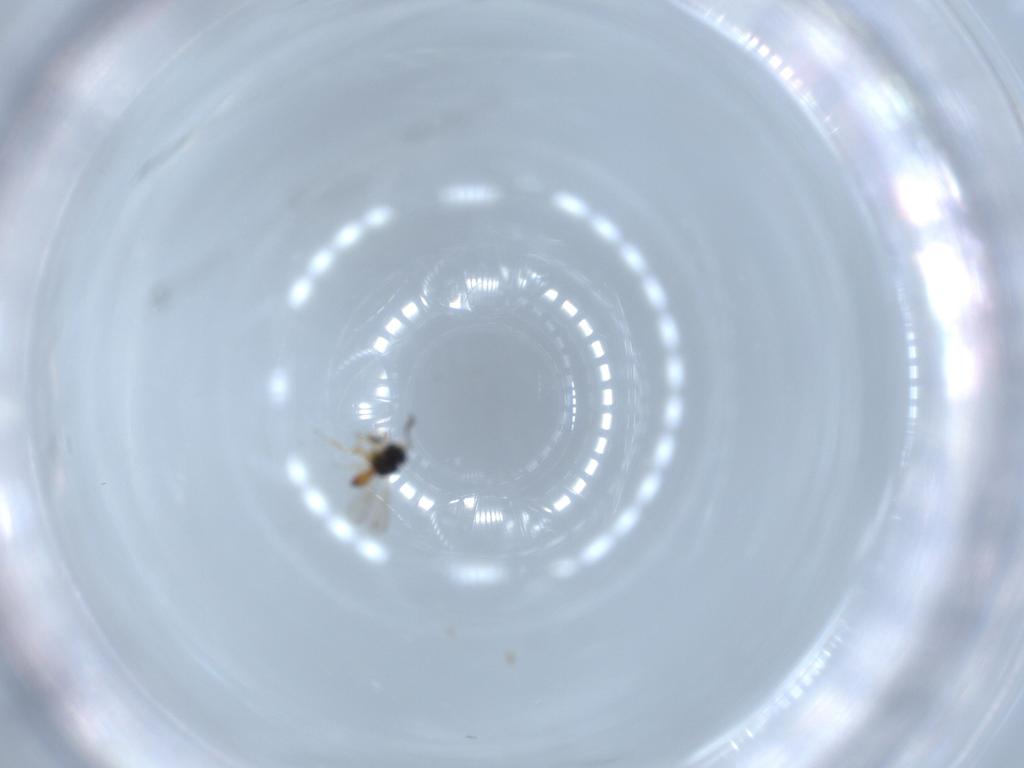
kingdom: Animalia
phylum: Arthropoda
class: Insecta
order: Hymenoptera
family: Scelionidae
